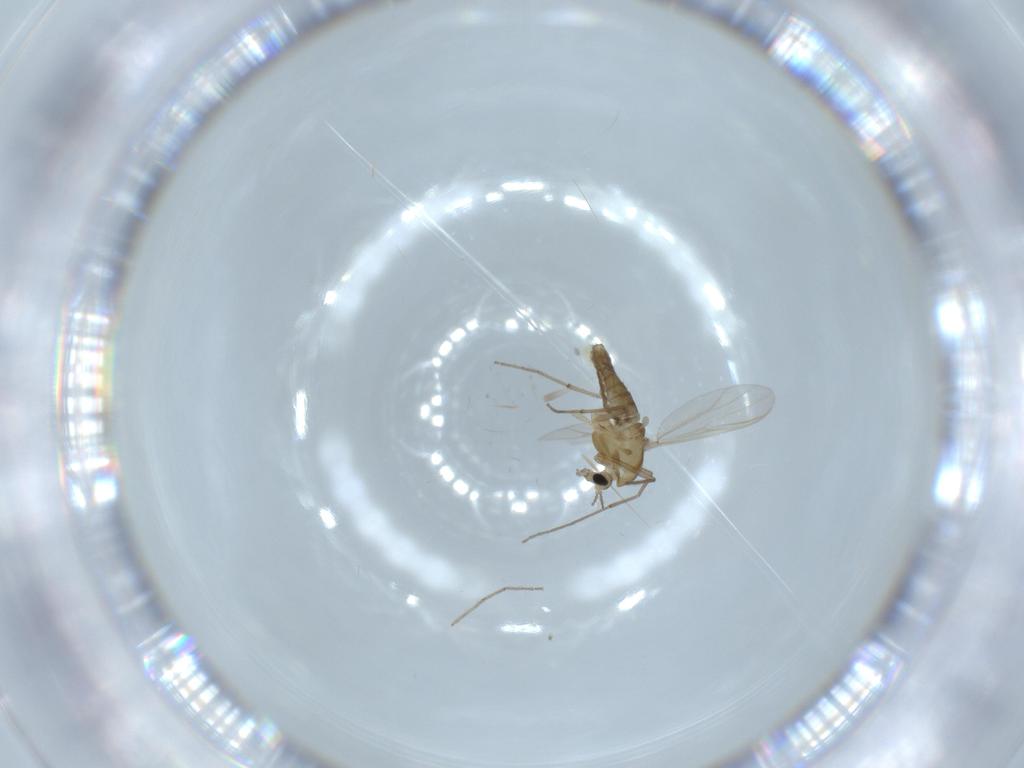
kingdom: Animalia
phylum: Arthropoda
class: Insecta
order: Diptera
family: Chironomidae
